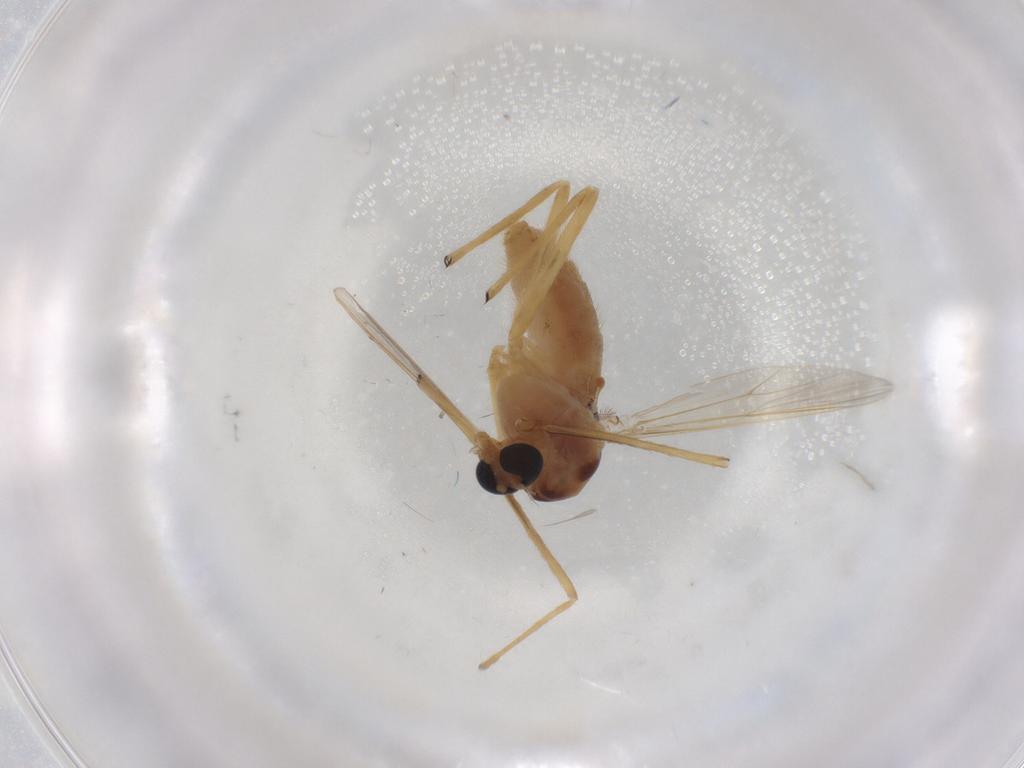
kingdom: Animalia
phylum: Arthropoda
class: Insecta
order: Diptera
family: Chironomidae
